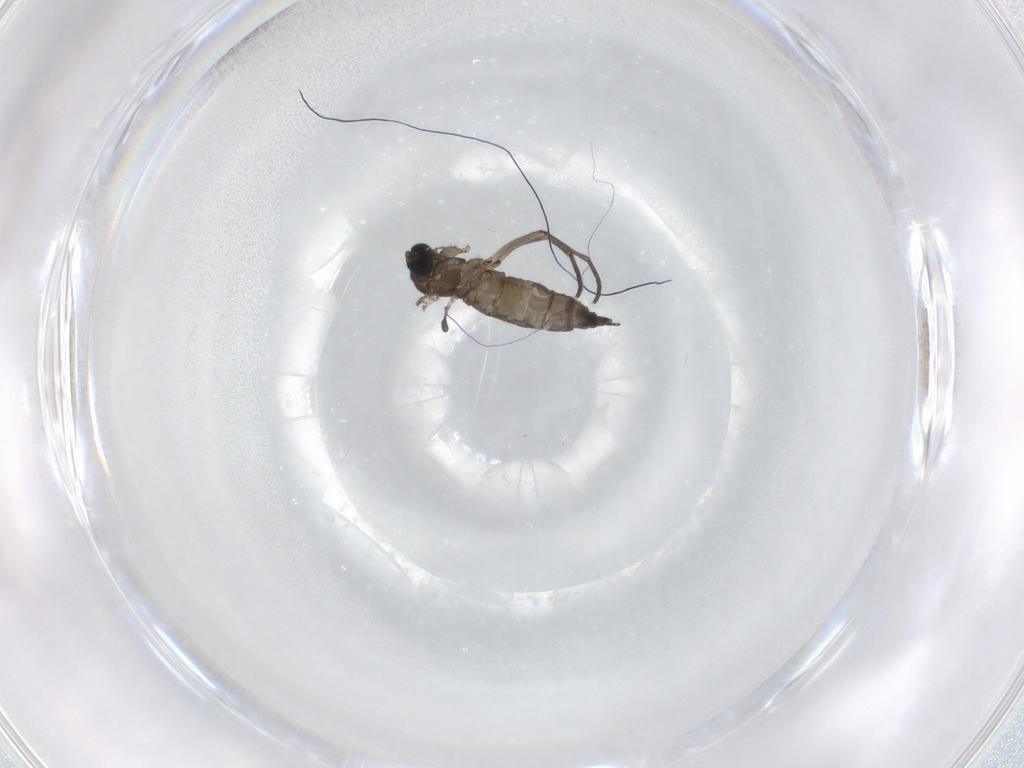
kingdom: Animalia
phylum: Arthropoda
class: Insecta
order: Diptera
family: Sciaridae
